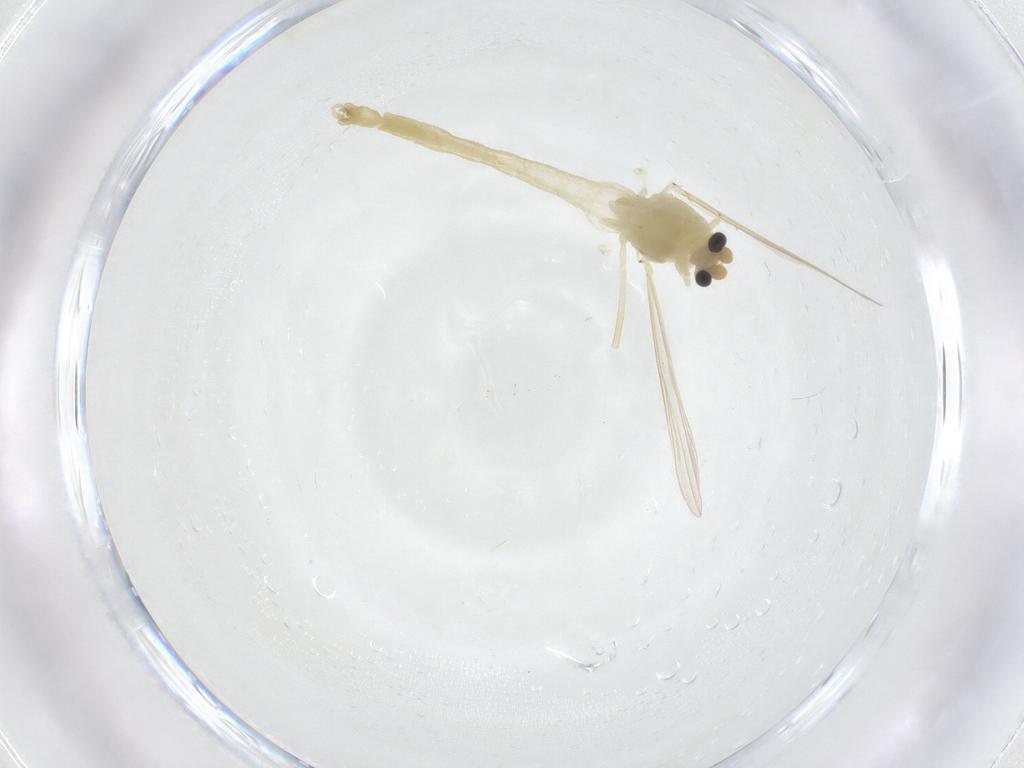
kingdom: Animalia
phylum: Arthropoda
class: Insecta
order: Diptera
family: Chironomidae
